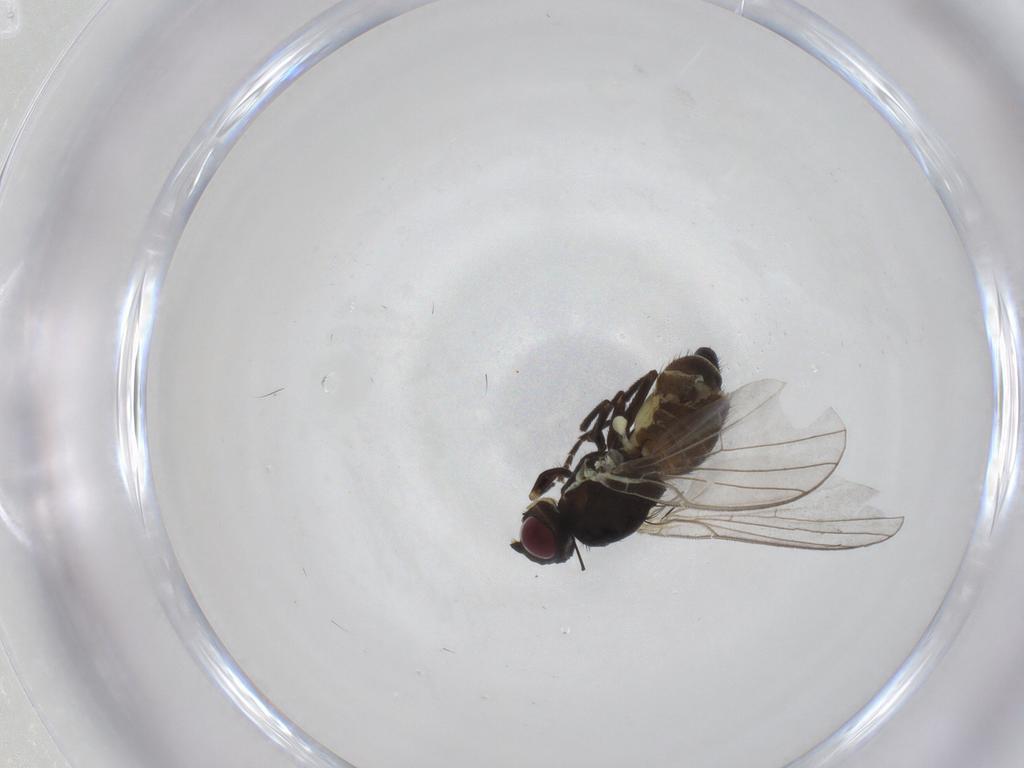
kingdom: Animalia
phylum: Arthropoda
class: Insecta
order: Diptera
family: Agromyzidae
